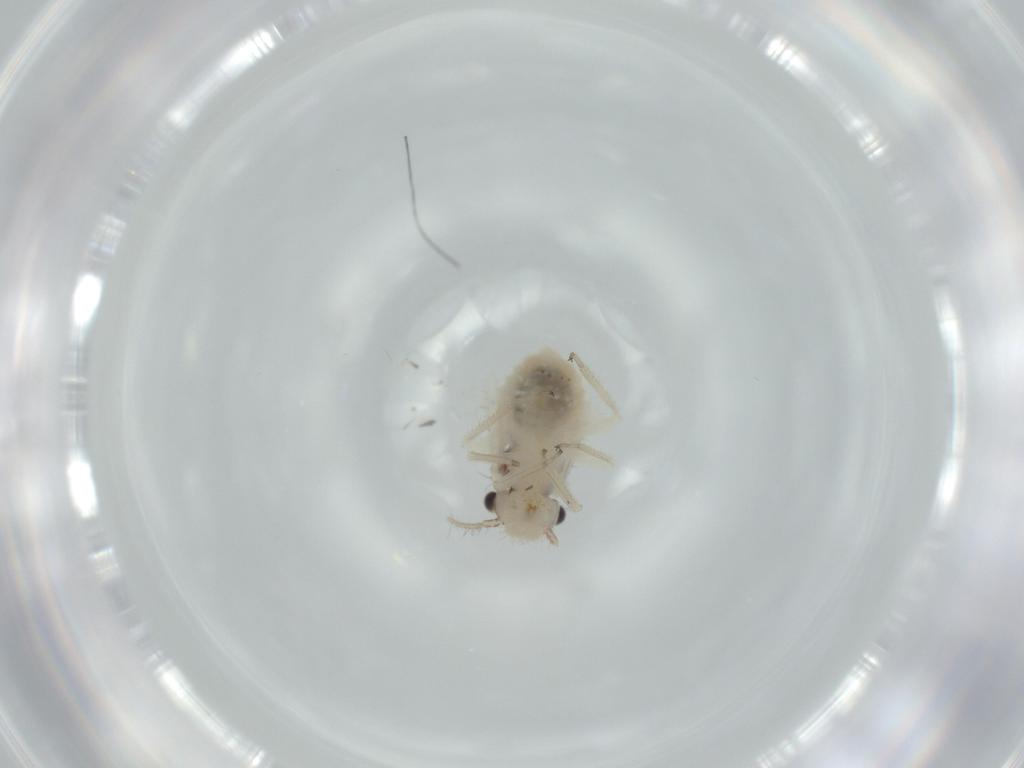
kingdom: Animalia
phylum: Arthropoda
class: Insecta
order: Psocodea
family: Pseudocaeciliidae
